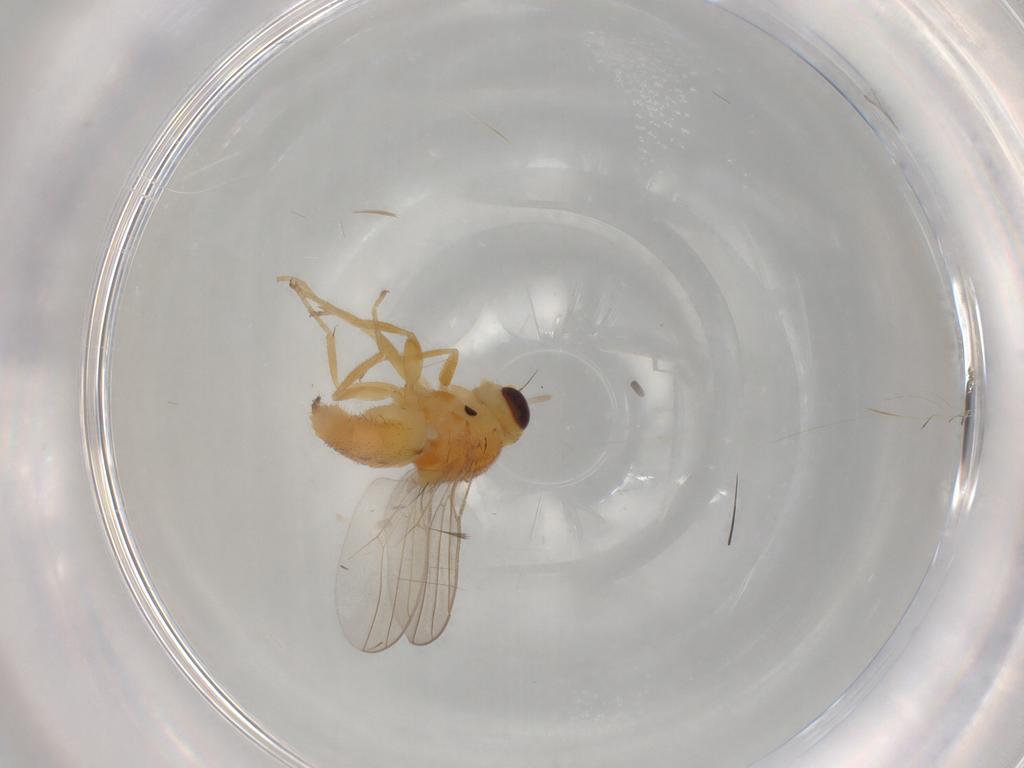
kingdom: Animalia
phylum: Arthropoda
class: Insecta
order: Diptera
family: Chloropidae
